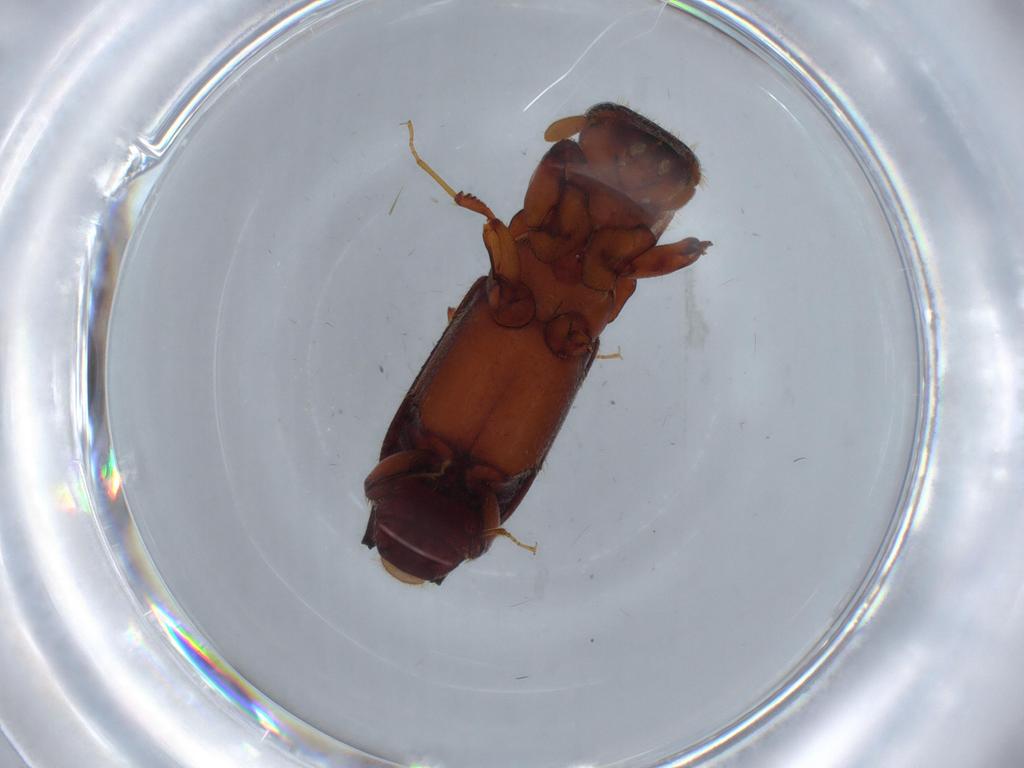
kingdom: Animalia
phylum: Arthropoda
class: Insecta
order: Coleoptera
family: Curculionidae
